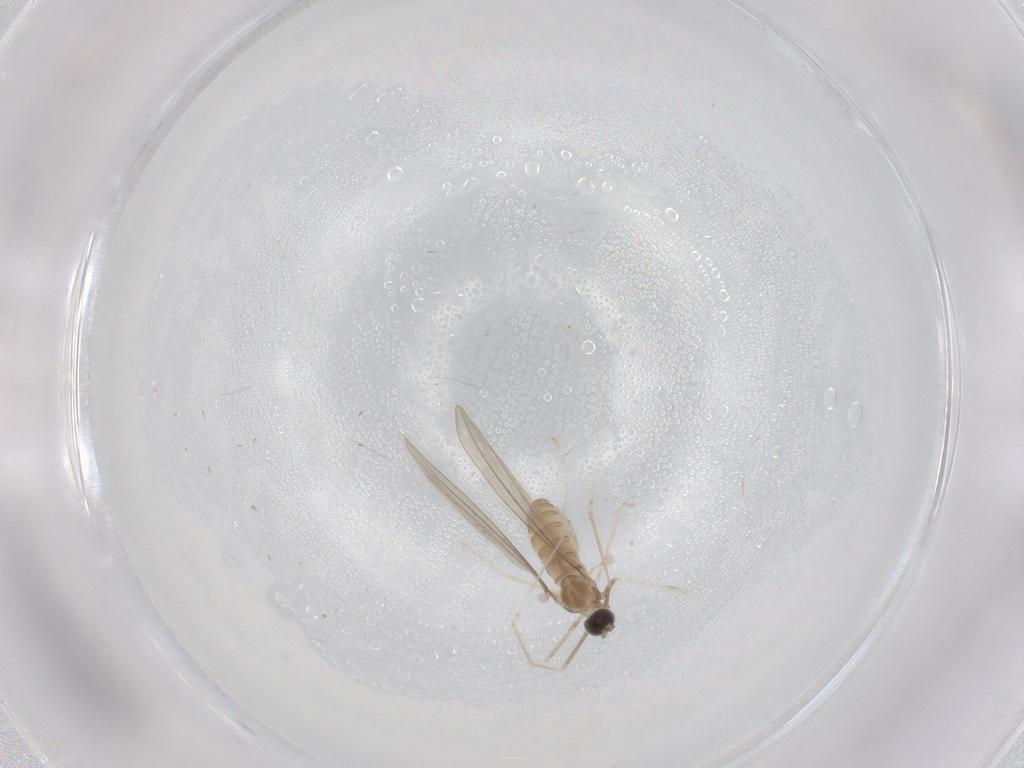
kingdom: Animalia
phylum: Arthropoda
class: Insecta
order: Diptera
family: Cecidomyiidae
